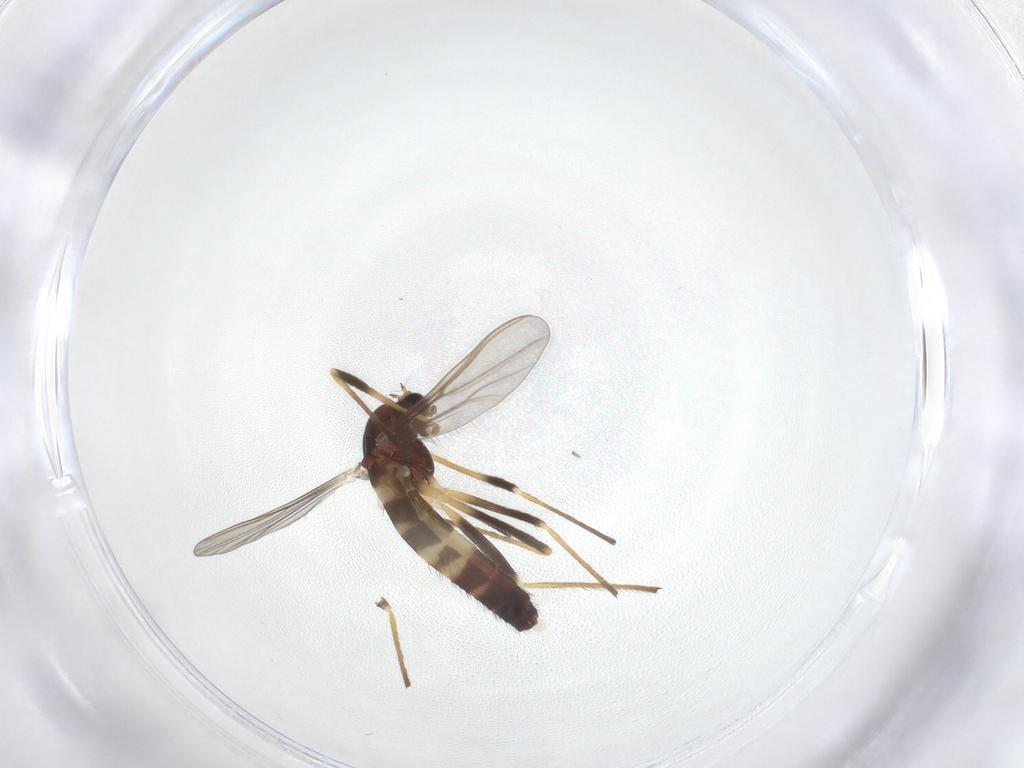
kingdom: Animalia
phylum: Arthropoda
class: Insecta
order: Diptera
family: Chironomidae
